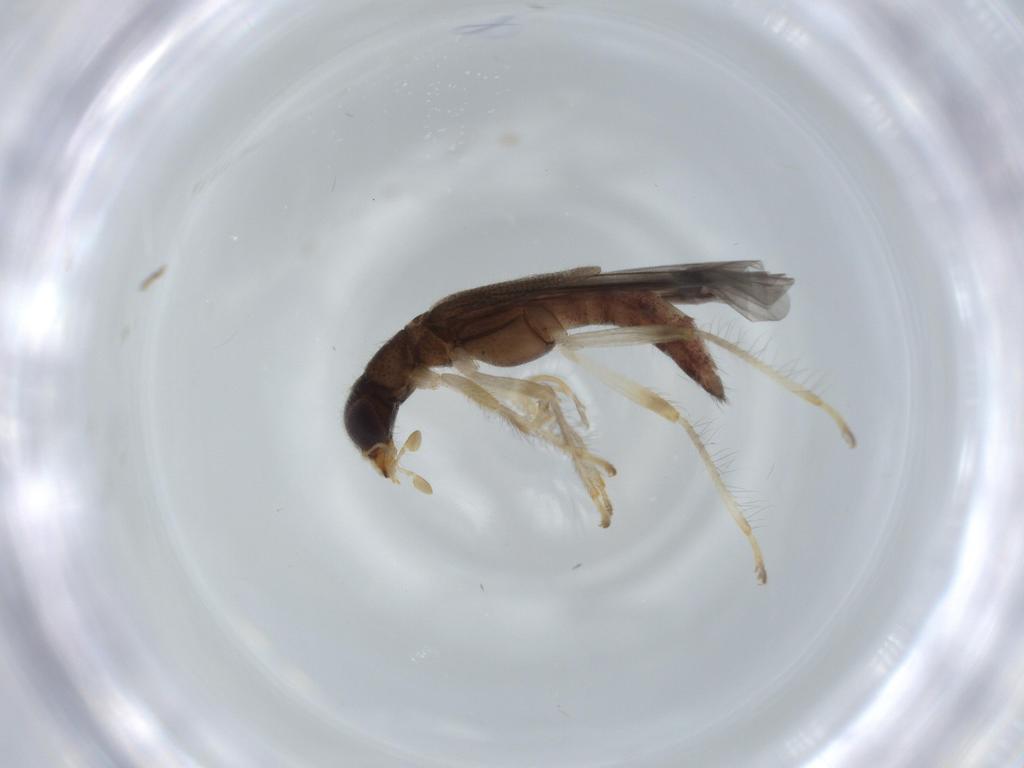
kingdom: Animalia
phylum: Arthropoda
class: Insecta
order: Coleoptera
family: Cleridae
